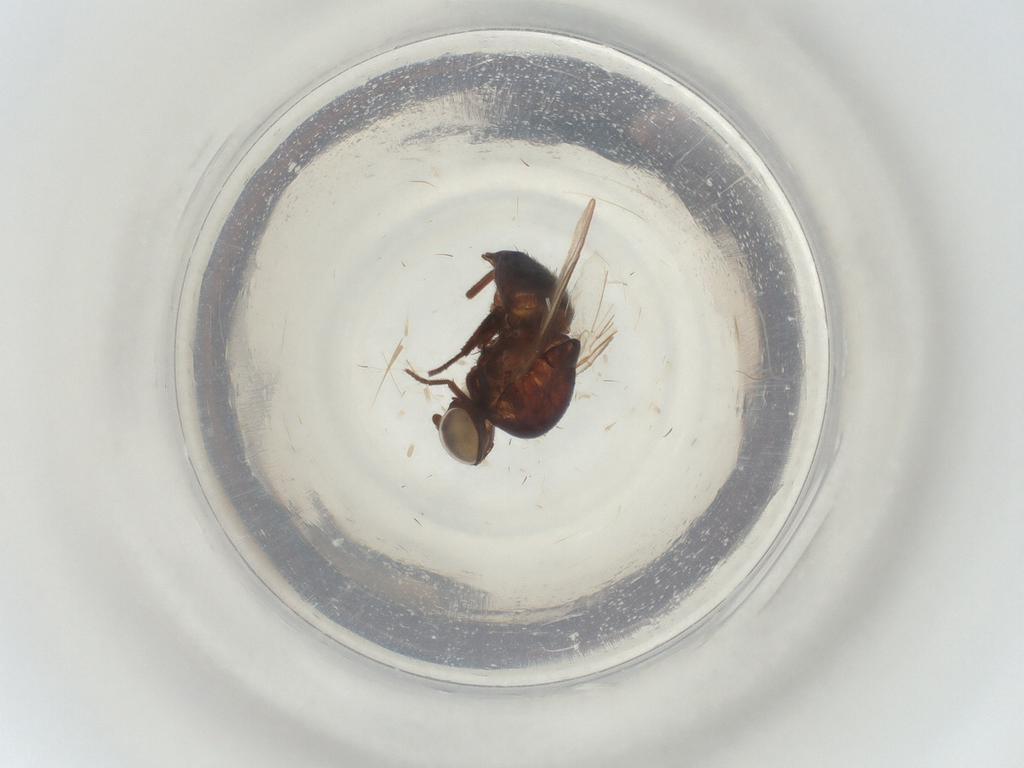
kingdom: Animalia
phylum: Arthropoda
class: Insecta
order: Diptera
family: Agromyzidae
